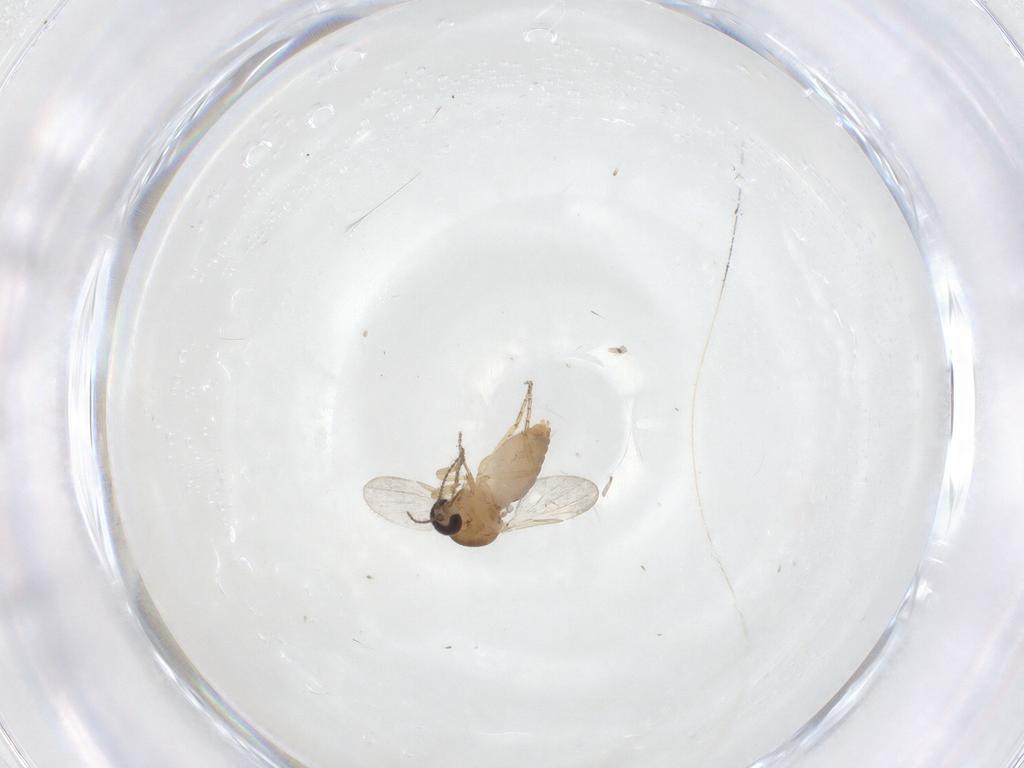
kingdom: Animalia
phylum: Arthropoda
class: Insecta
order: Diptera
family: Ceratopogonidae
